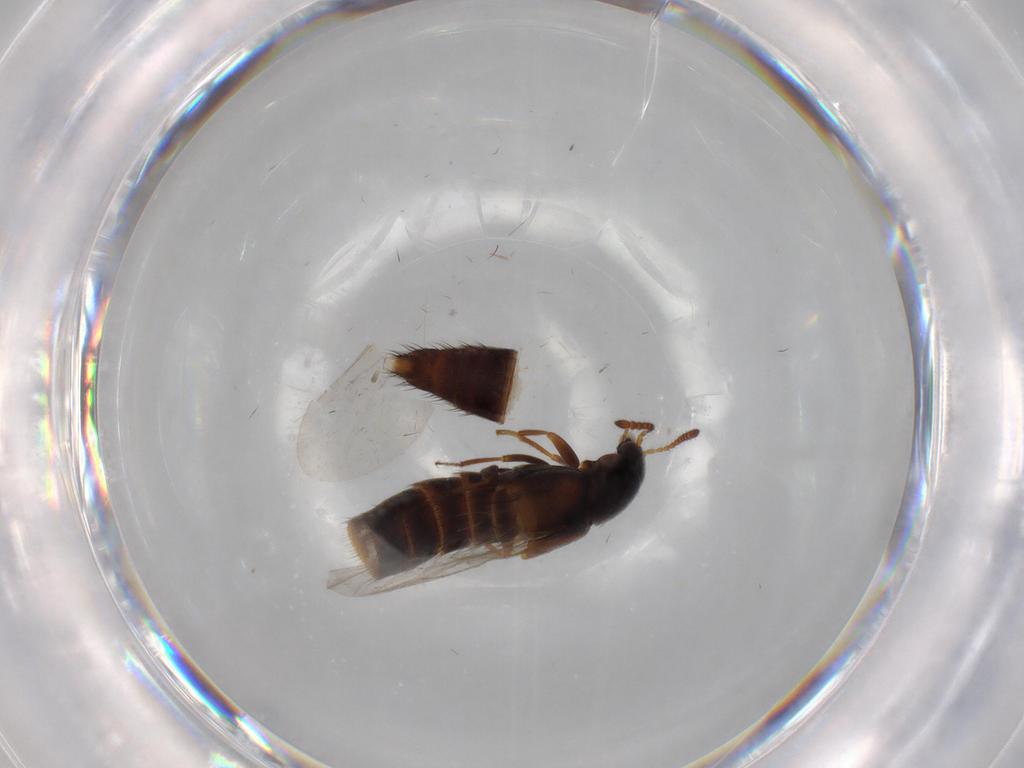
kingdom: Animalia
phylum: Arthropoda
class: Insecta
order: Coleoptera
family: Staphylinidae
